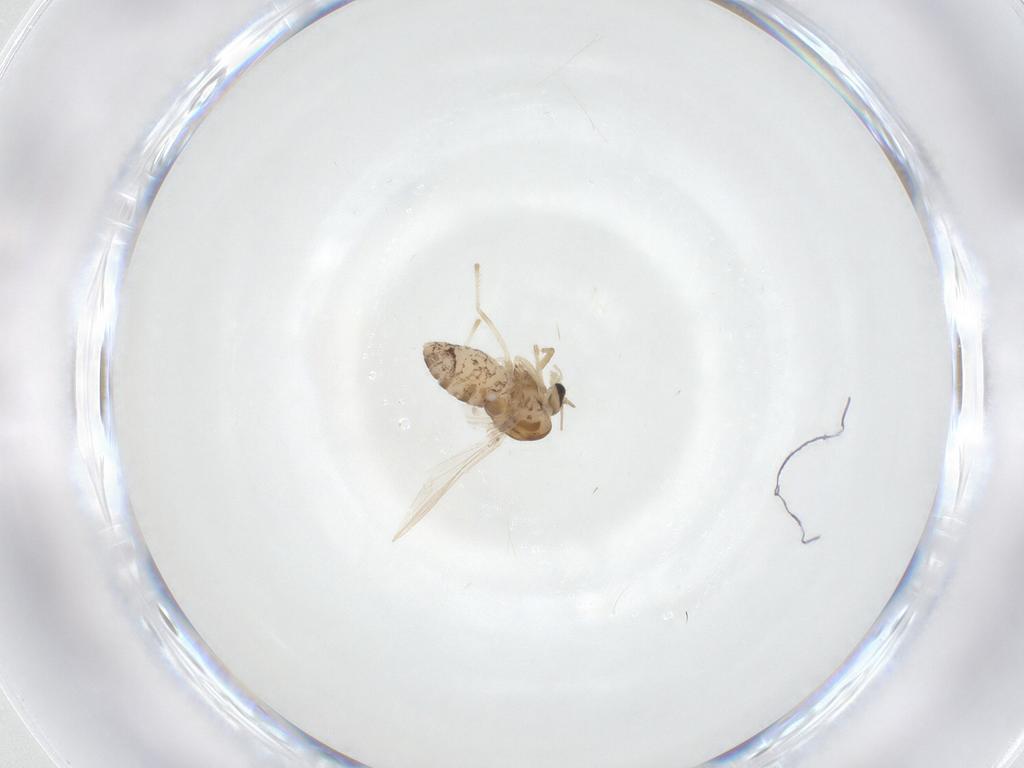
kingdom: Animalia
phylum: Arthropoda
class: Insecta
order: Diptera
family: Chironomidae
